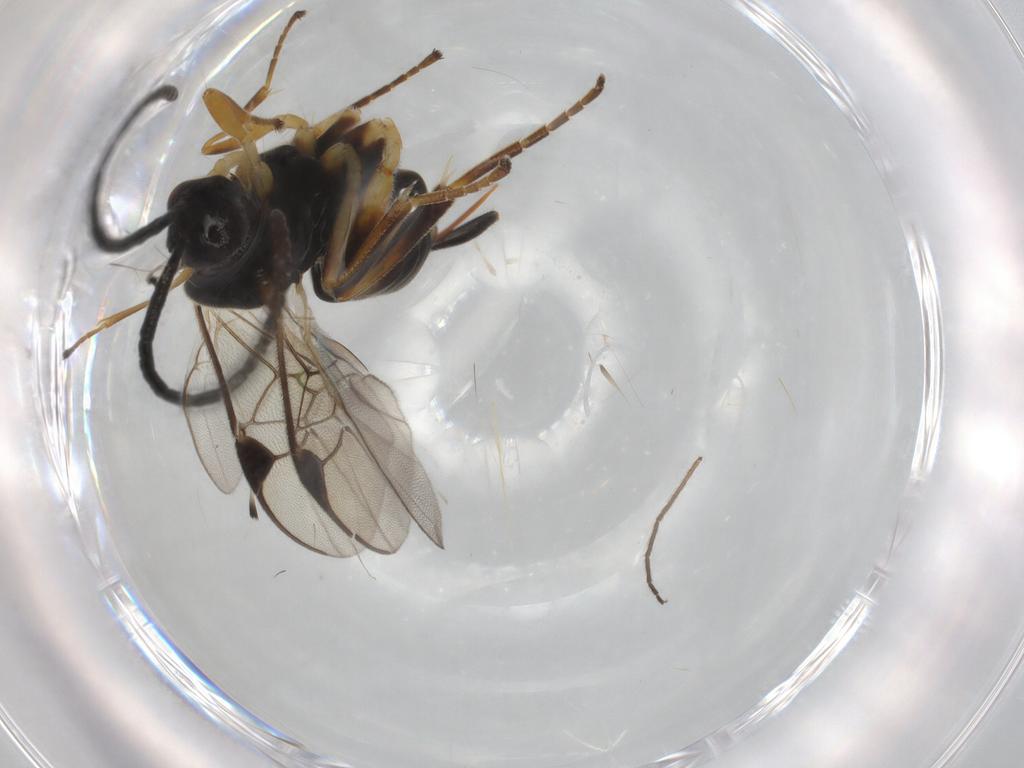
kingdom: Animalia
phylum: Arthropoda
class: Insecta
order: Hymenoptera
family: Braconidae
